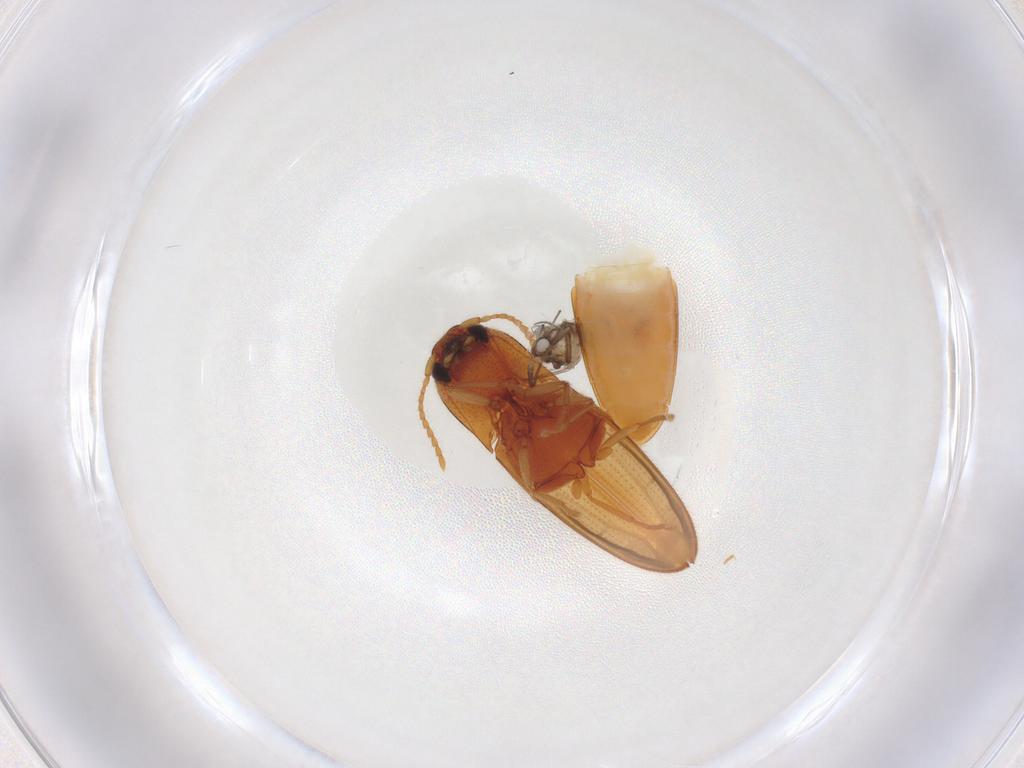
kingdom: Animalia
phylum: Arthropoda
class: Insecta
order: Coleoptera
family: Elateridae
